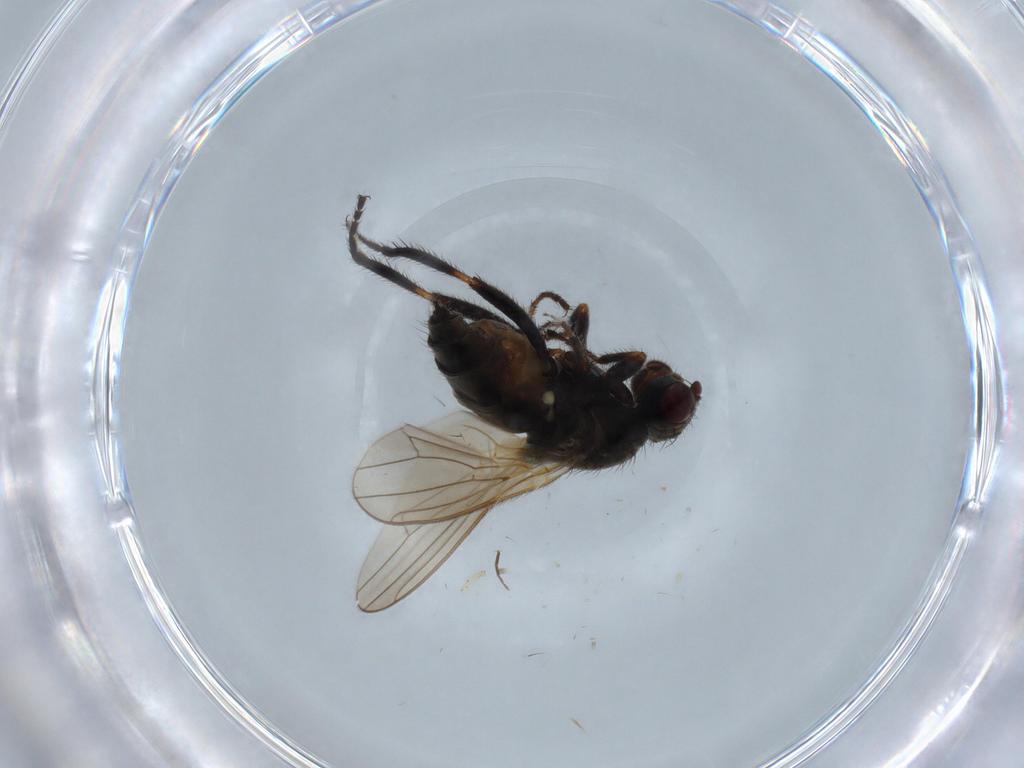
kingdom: Animalia
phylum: Arthropoda
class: Insecta
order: Diptera
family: Sphaeroceridae
